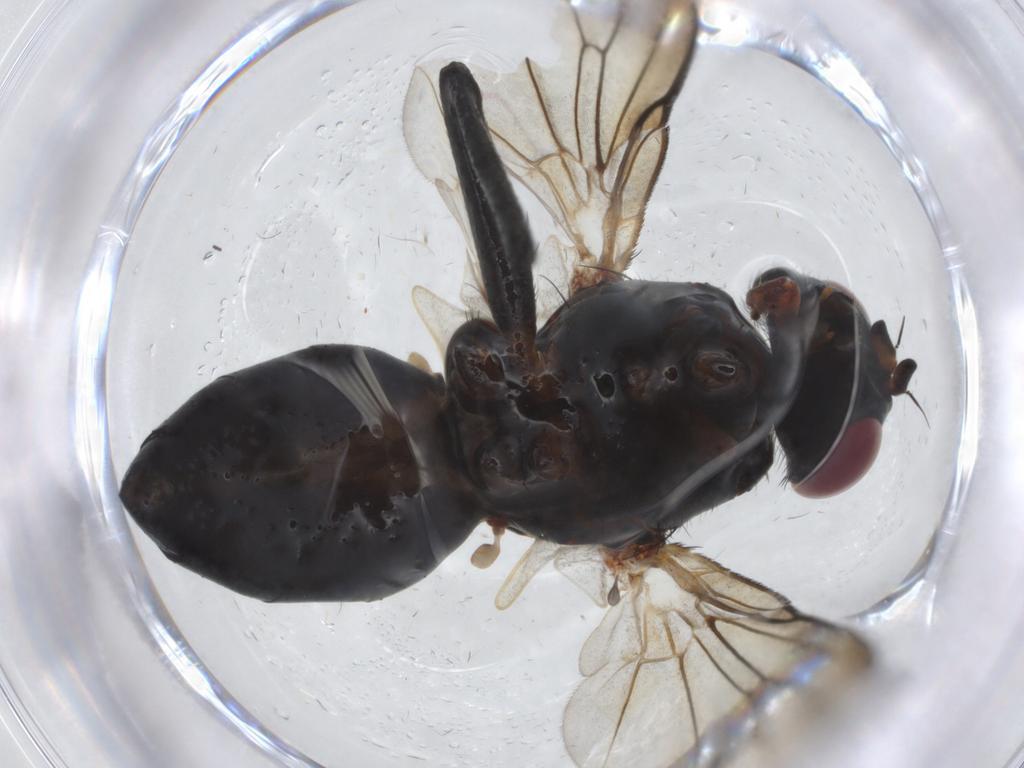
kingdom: Animalia
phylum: Arthropoda
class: Insecta
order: Diptera
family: Tachinidae
